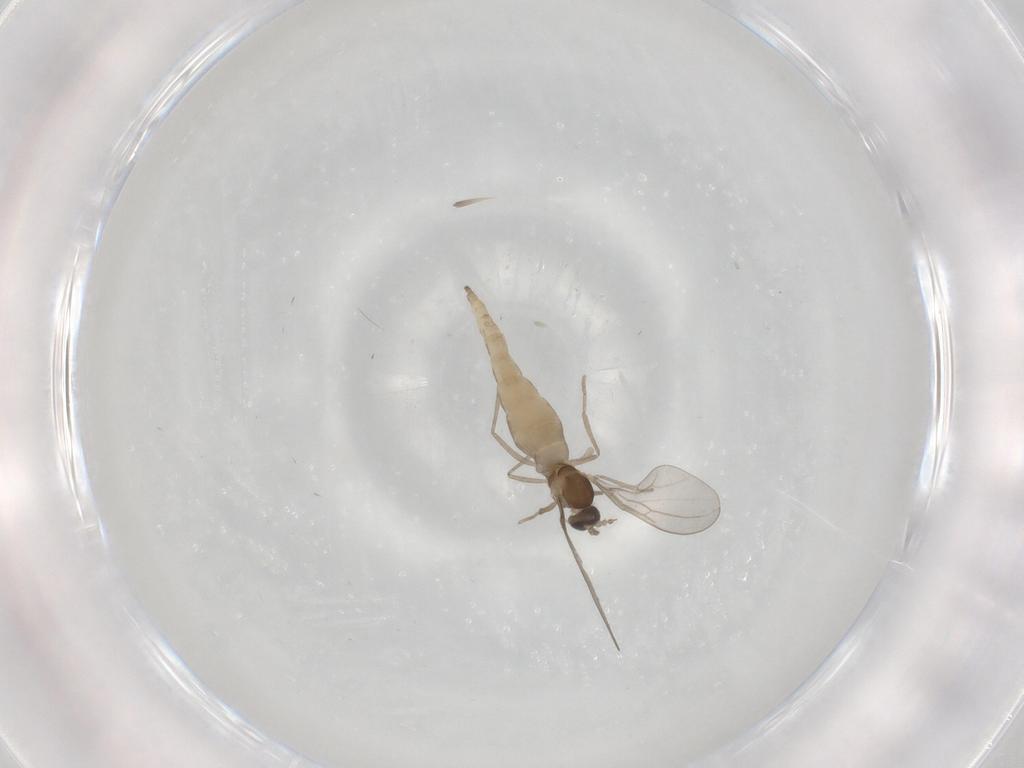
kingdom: Animalia
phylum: Arthropoda
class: Insecta
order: Diptera
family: Cecidomyiidae
